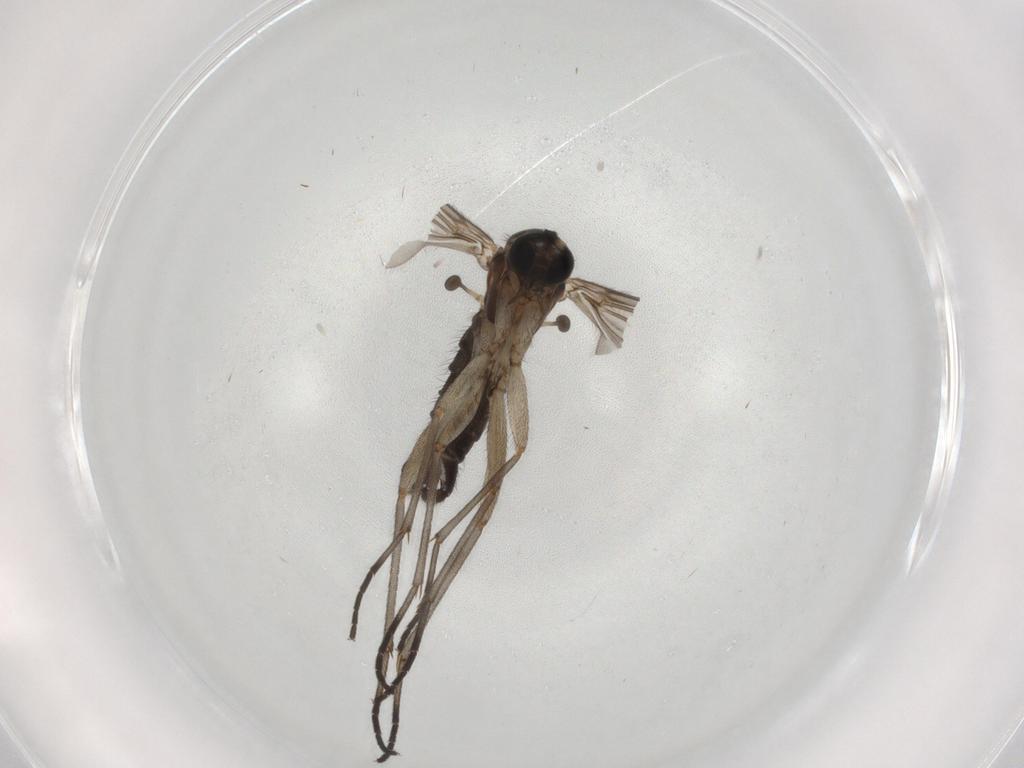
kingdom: Animalia
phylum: Arthropoda
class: Insecta
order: Diptera
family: Sciaridae
